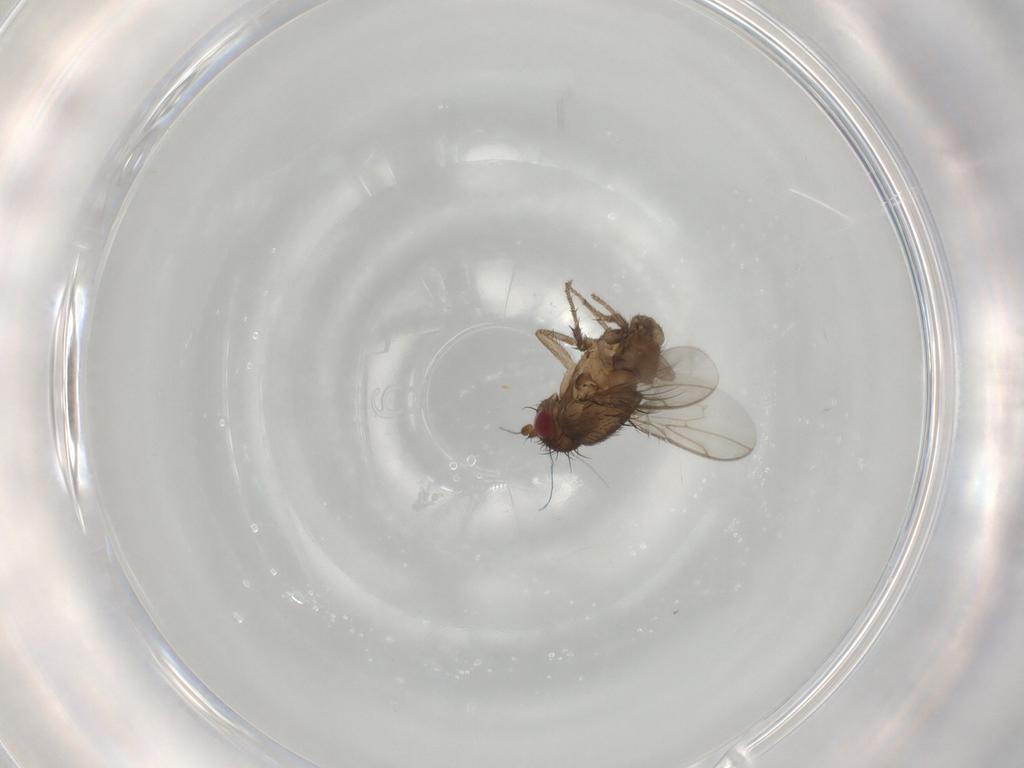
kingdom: Animalia
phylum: Arthropoda
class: Insecta
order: Diptera
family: Sphaeroceridae
